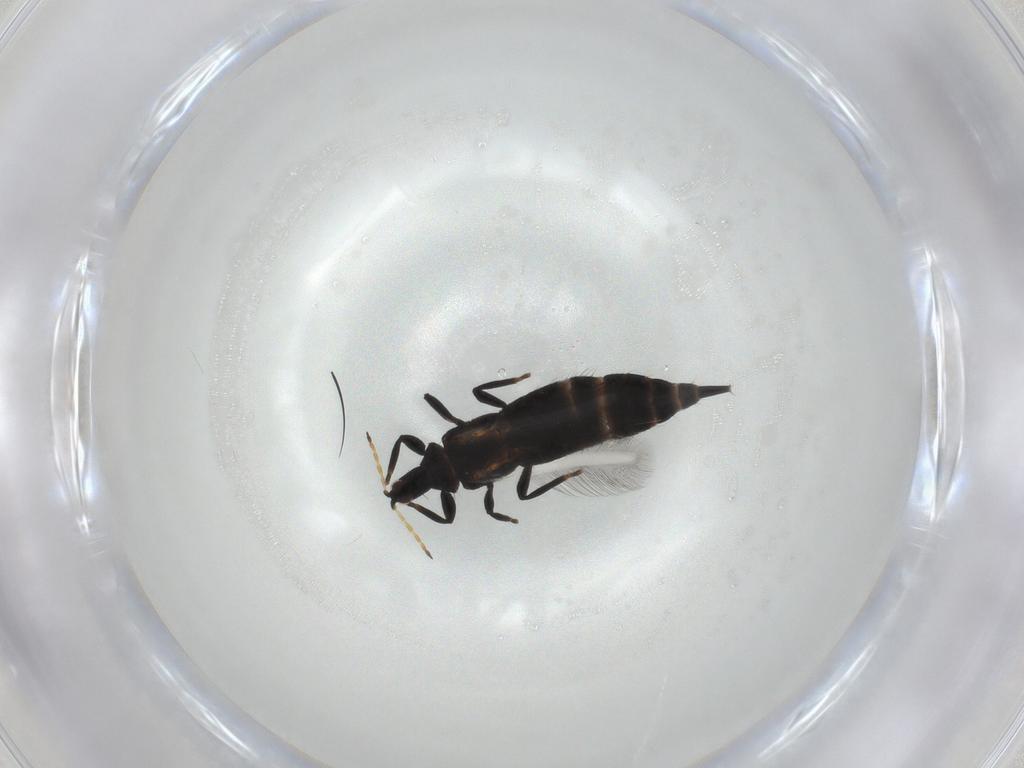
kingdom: Animalia
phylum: Arthropoda
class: Insecta
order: Thysanoptera
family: Phlaeothripidae
